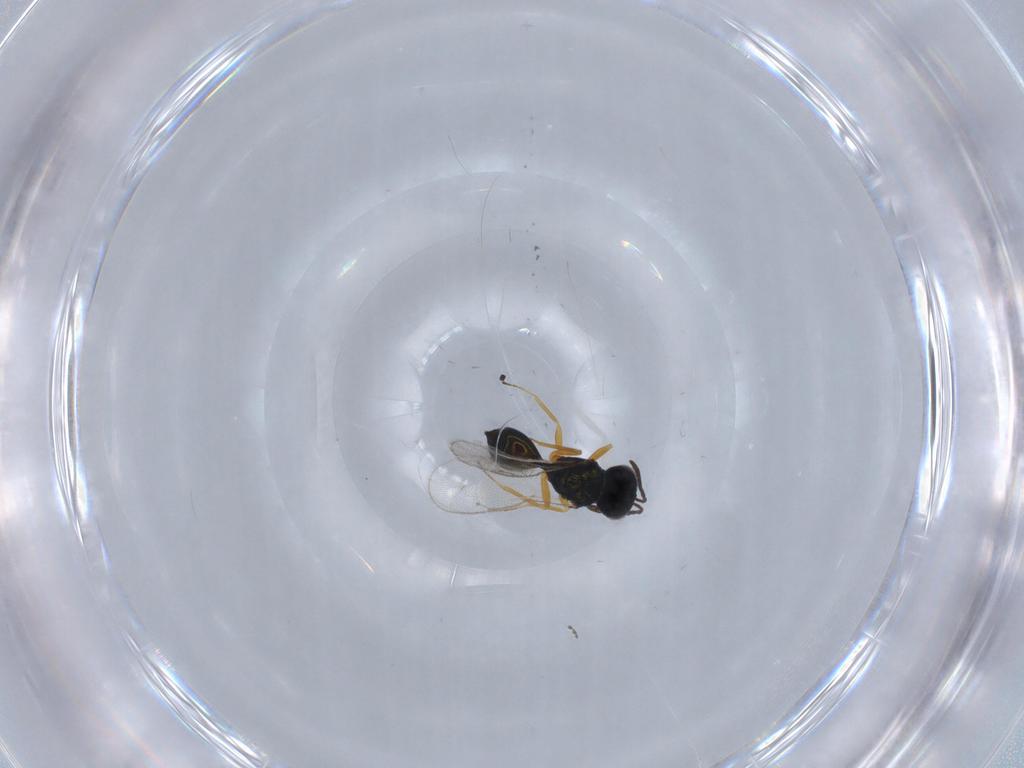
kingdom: Animalia
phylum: Arthropoda
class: Insecta
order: Hymenoptera
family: Pteromalidae
